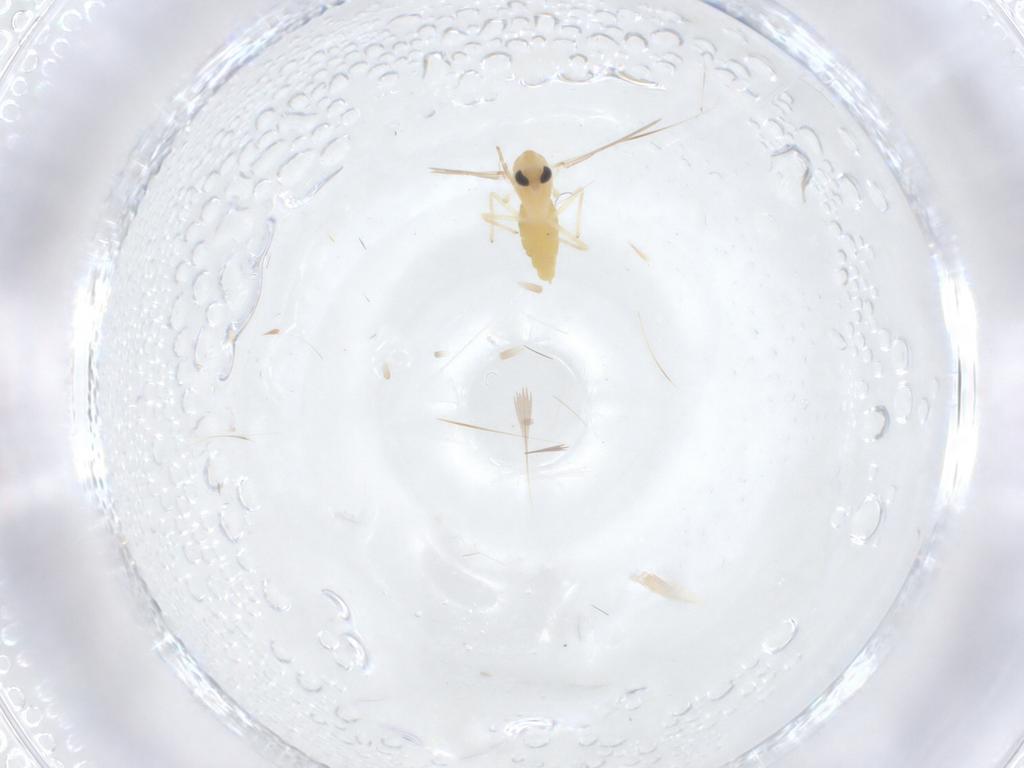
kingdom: Animalia
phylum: Arthropoda
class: Insecta
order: Diptera
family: Chironomidae
